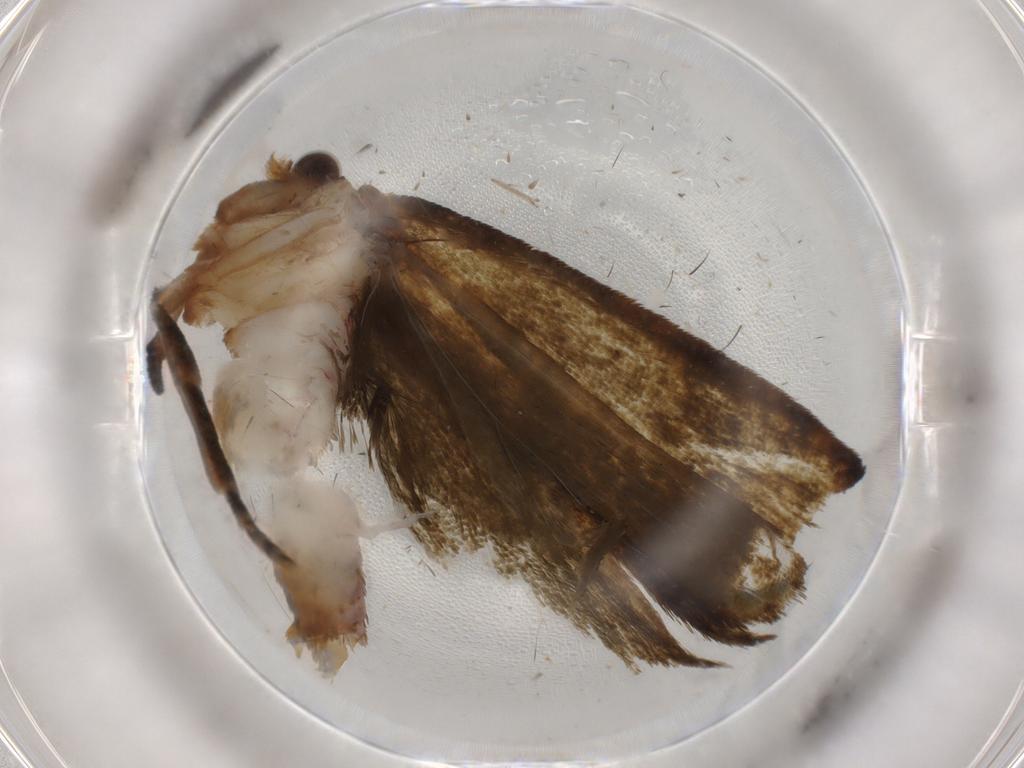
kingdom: Animalia
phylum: Arthropoda
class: Insecta
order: Lepidoptera
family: Geometridae
